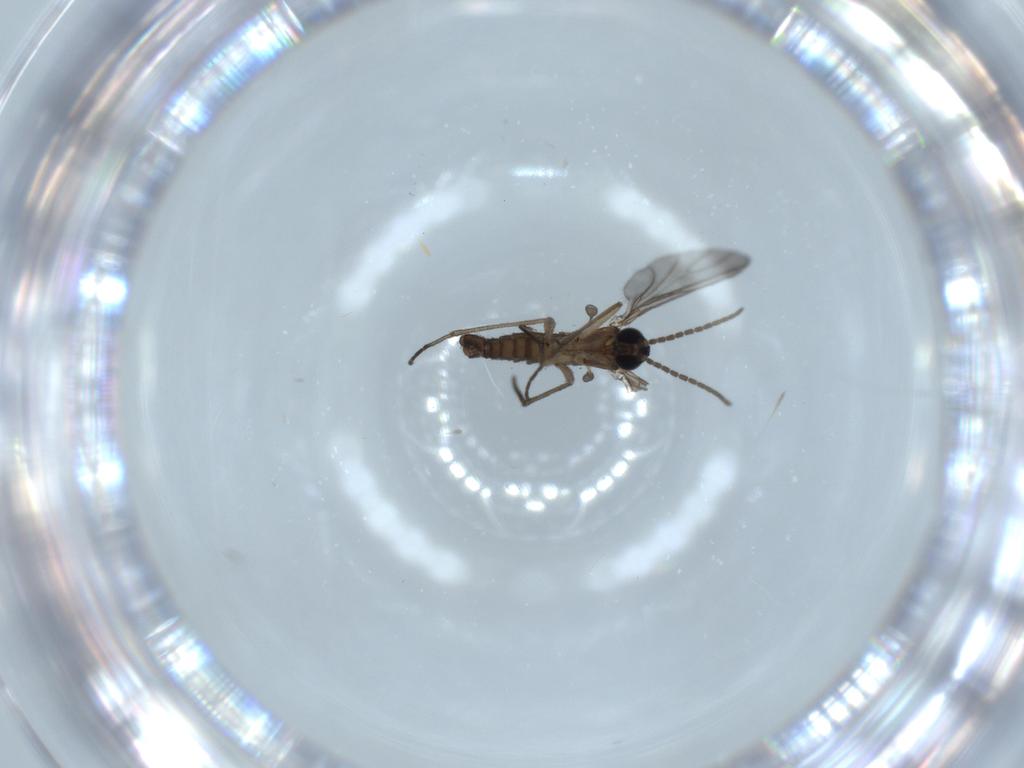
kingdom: Animalia
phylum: Arthropoda
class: Insecta
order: Diptera
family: Sciaridae
